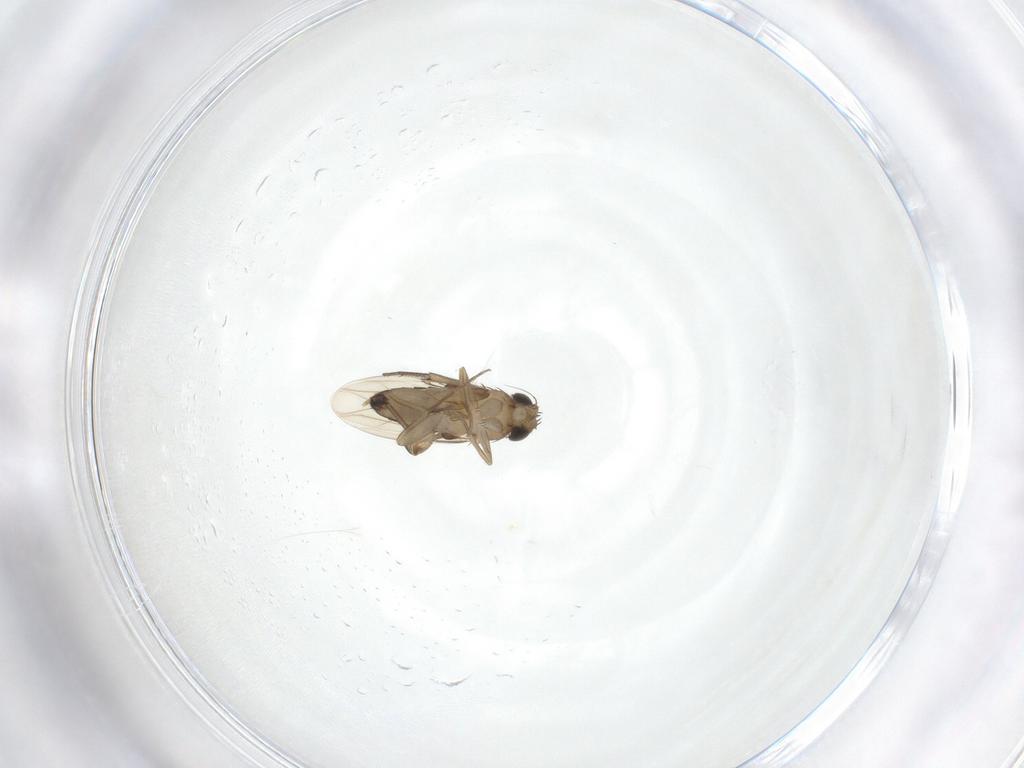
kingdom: Animalia
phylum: Arthropoda
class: Insecta
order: Diptera
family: Phoridae
